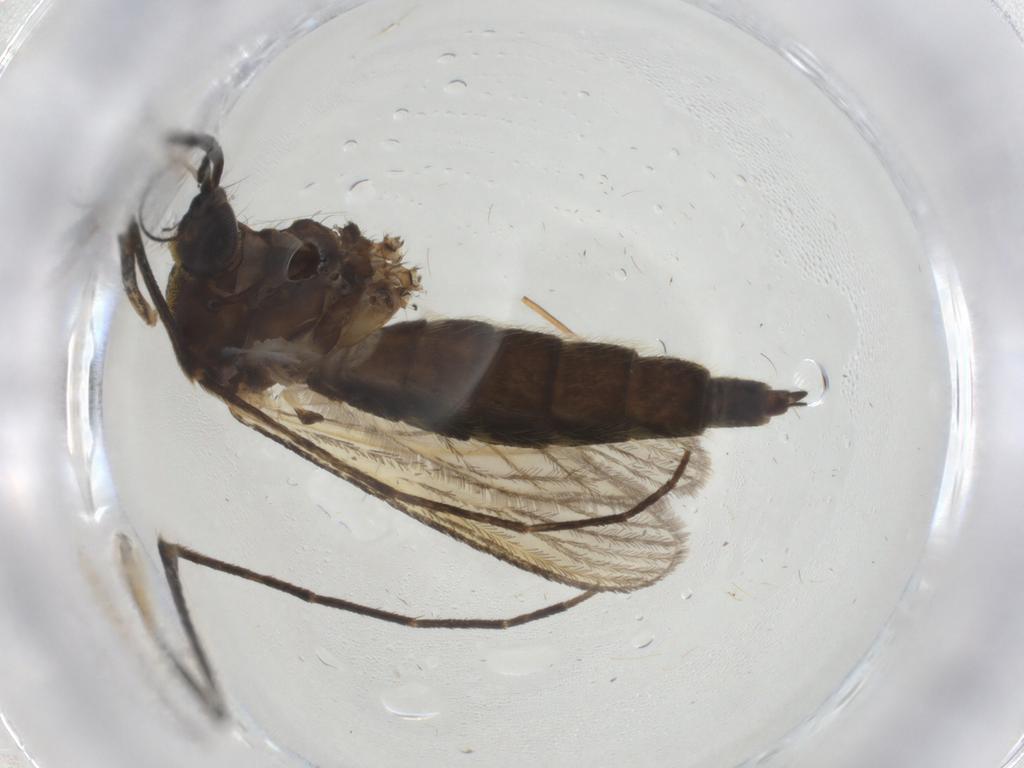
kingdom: Animalia
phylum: Arthropoda
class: Insecta
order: Diptera
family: Culicidae
